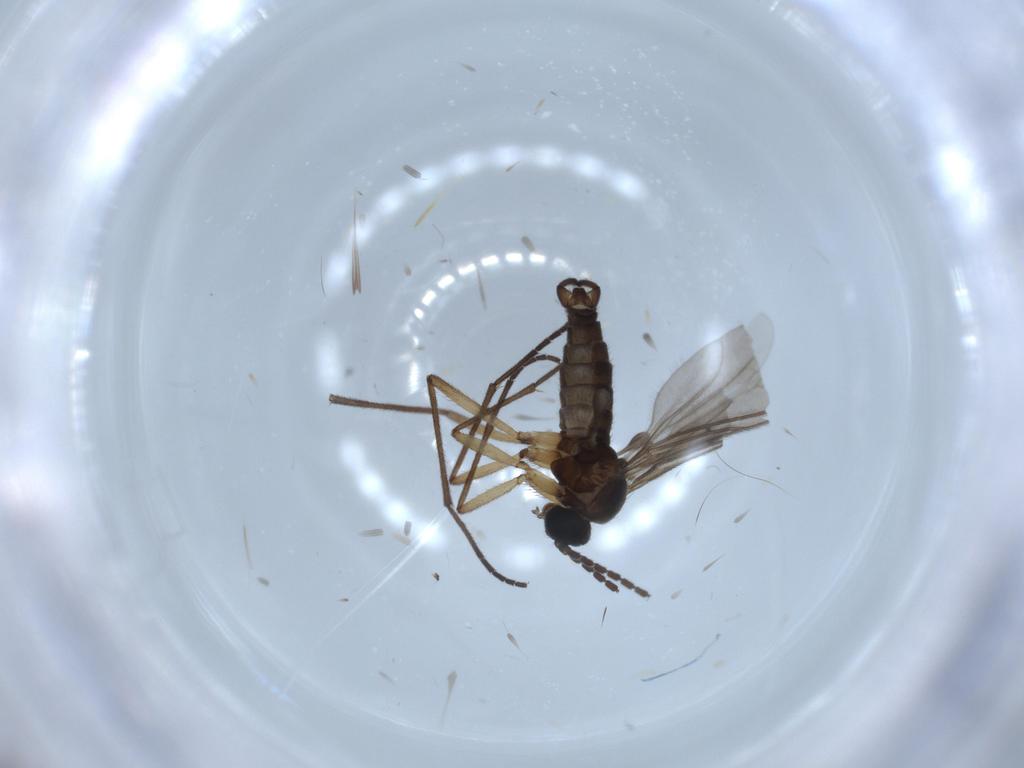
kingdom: Animalia
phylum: Arthropoda
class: Insecta
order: Diptera
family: Sciaridae
